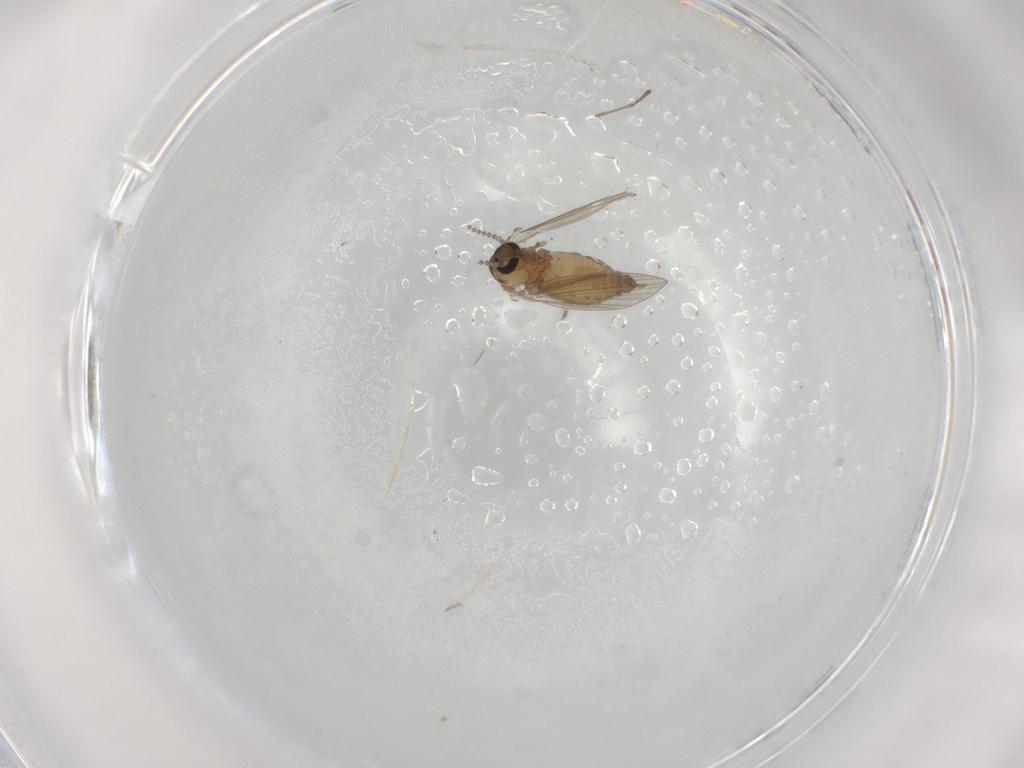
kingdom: Animalia
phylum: Arthropoda
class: Insecta
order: Diptera
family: Psychodidae
